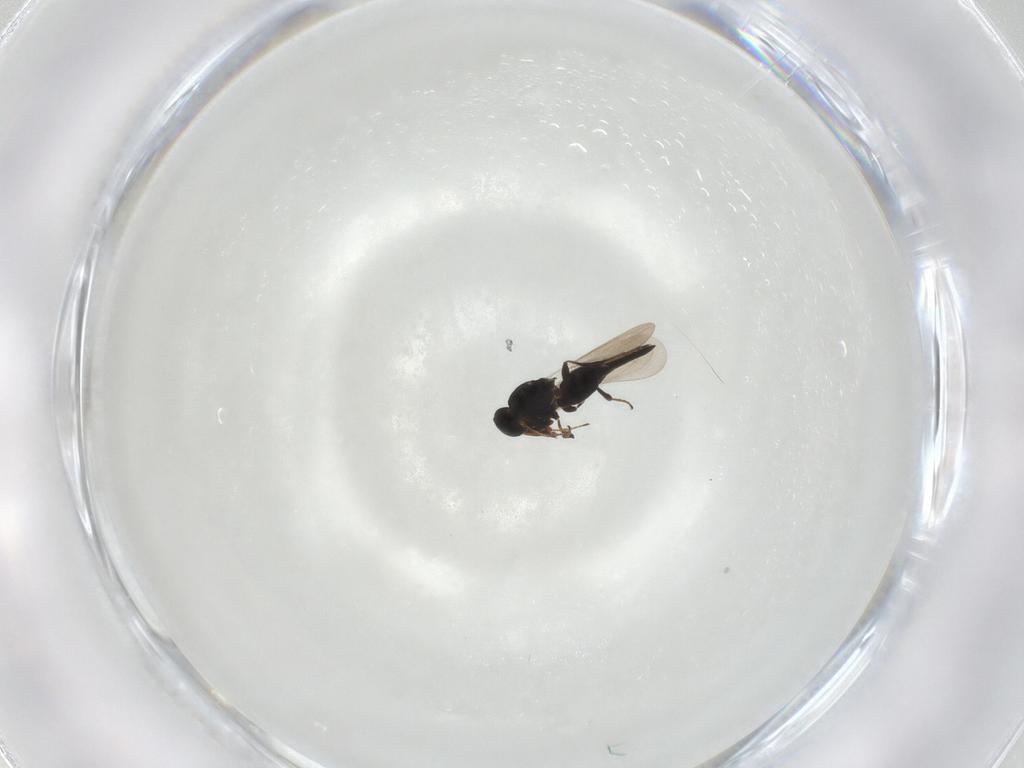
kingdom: Animalia
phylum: Arthropoda
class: Insecta
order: Hymenoptera
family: Platygastridae
